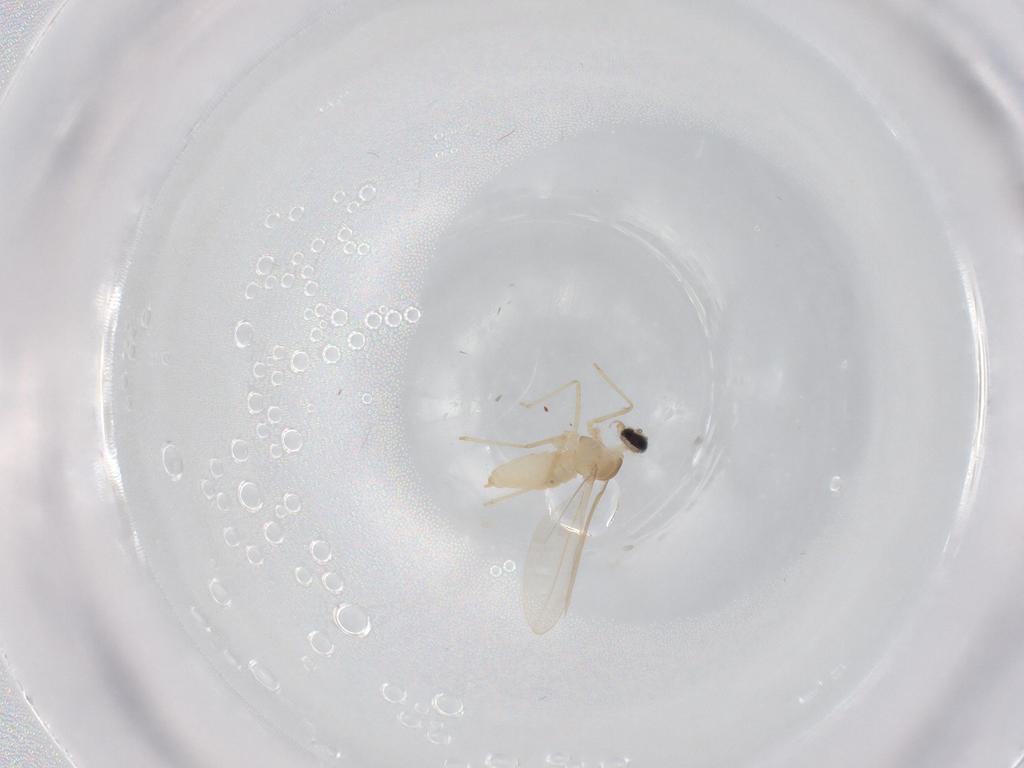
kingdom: Animalia
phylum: Arthropoda
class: Insecta
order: Diptera
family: Cecidomyiidae
